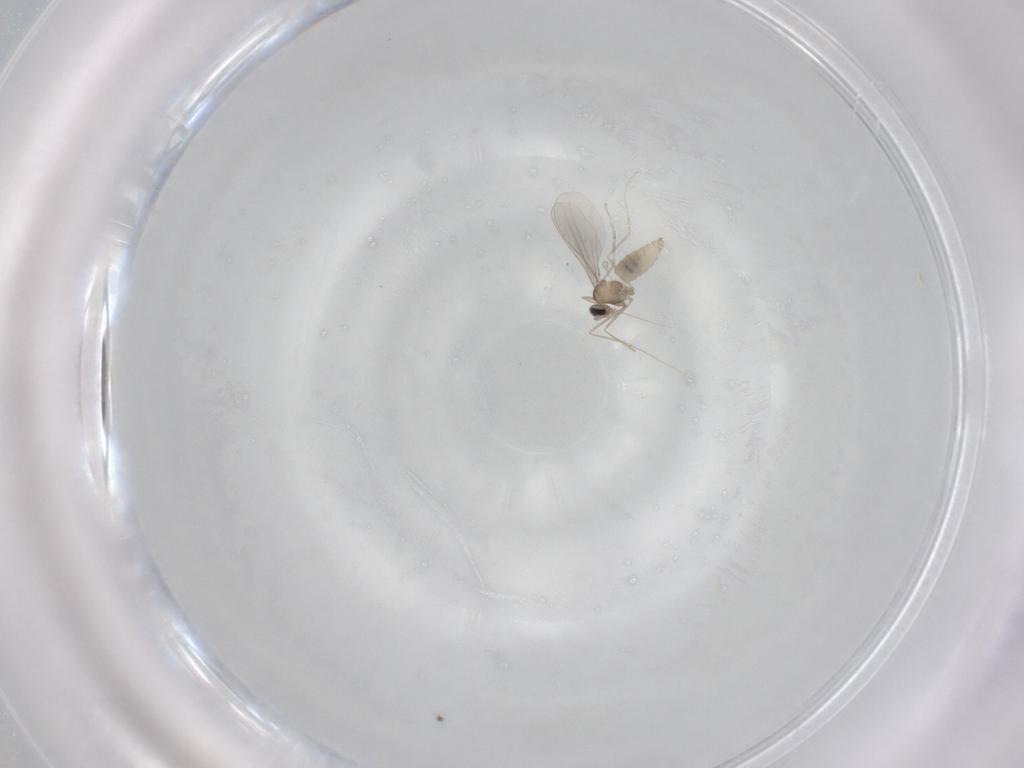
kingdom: Animalia
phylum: Arthropoda
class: Insecta
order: Diptera
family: Cecidomyiidae
